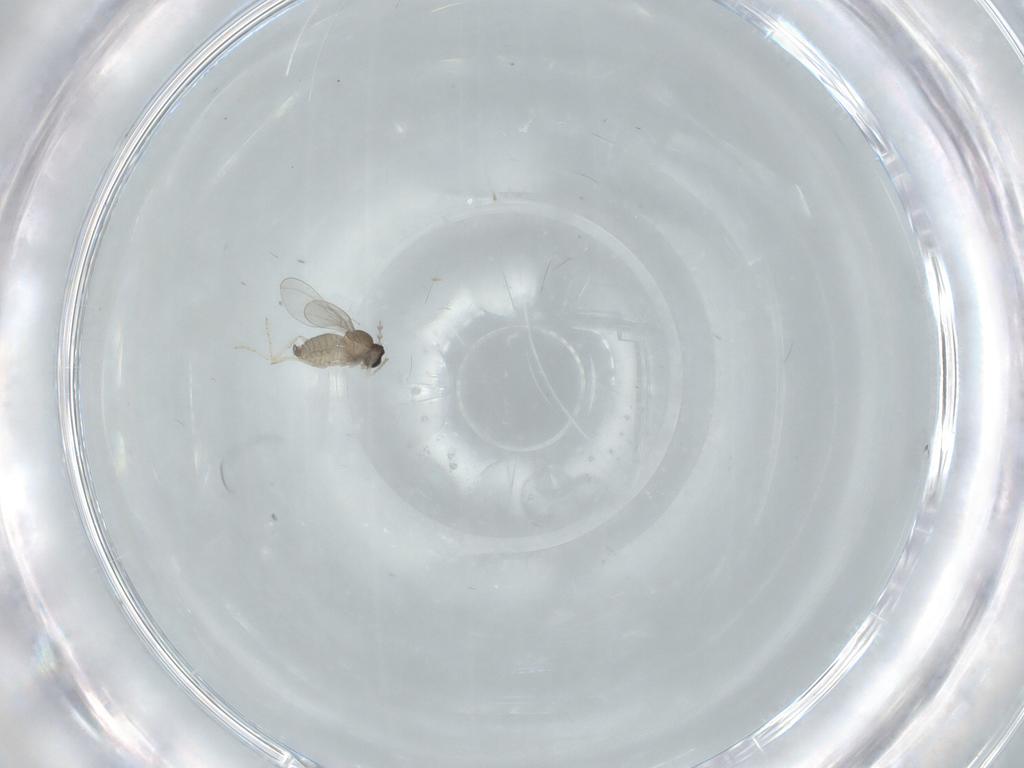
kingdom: Animalia
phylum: Arthropoda
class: Insecta
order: Diptera
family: Cecidomyiidae
